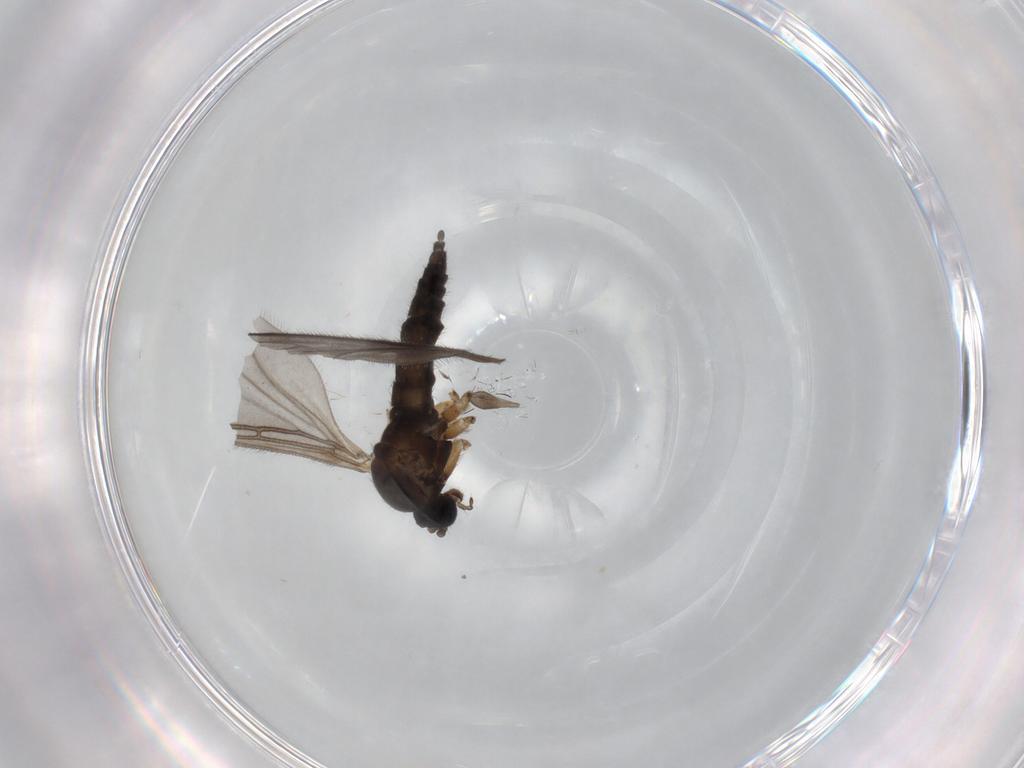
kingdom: Animalia
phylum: Arthropoda
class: Insecta
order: Diptera
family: Sciaridae
